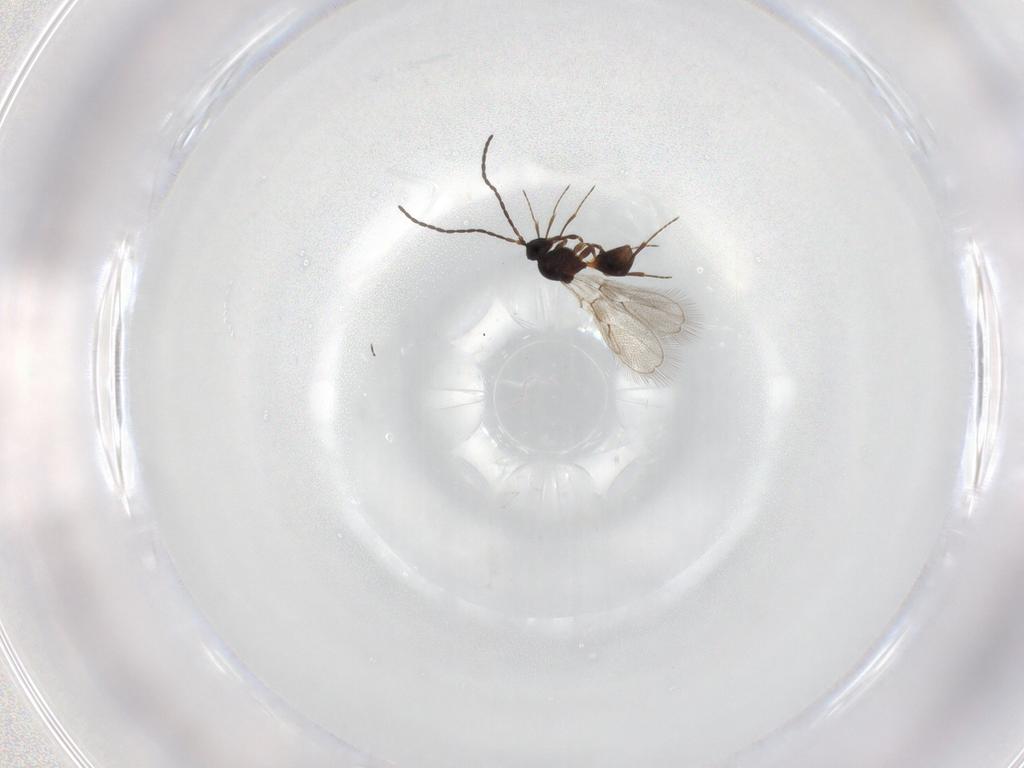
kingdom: Animalia
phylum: Arthropoda
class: Insecta
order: Hymenoptera
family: Figitidae
